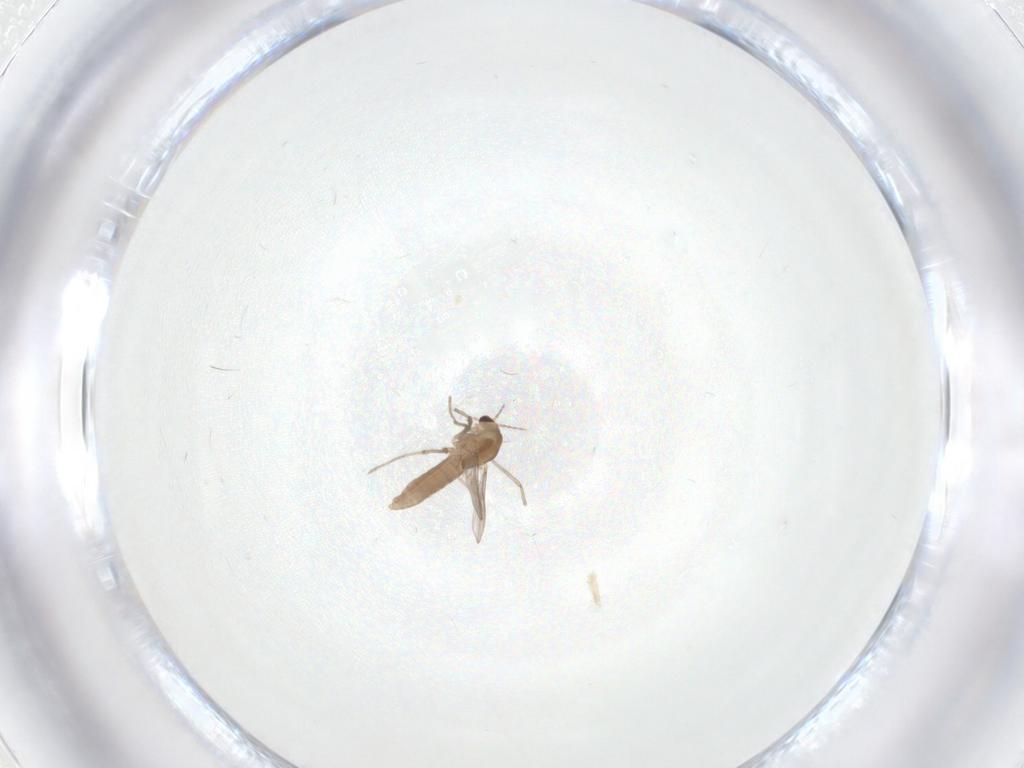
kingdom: Animalia
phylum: Arthropoda
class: Insecta
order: Diptera
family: Chironomidae
